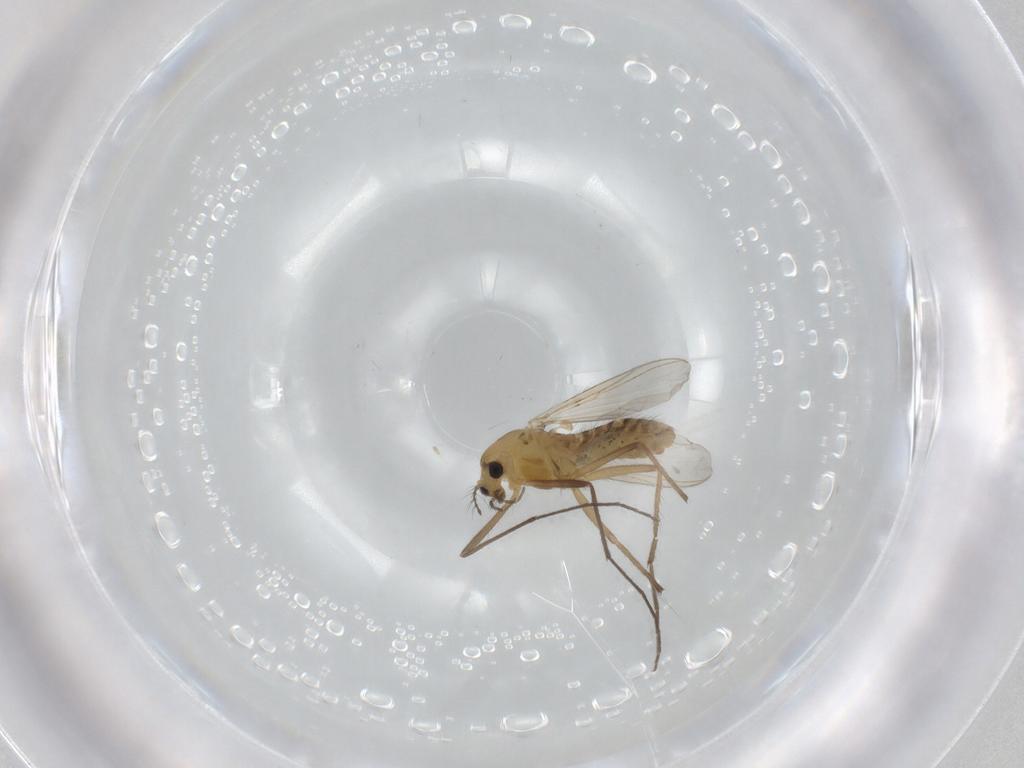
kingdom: Animalia
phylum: Arthropoda
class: Insecta
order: Diptera
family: Chironomidae
